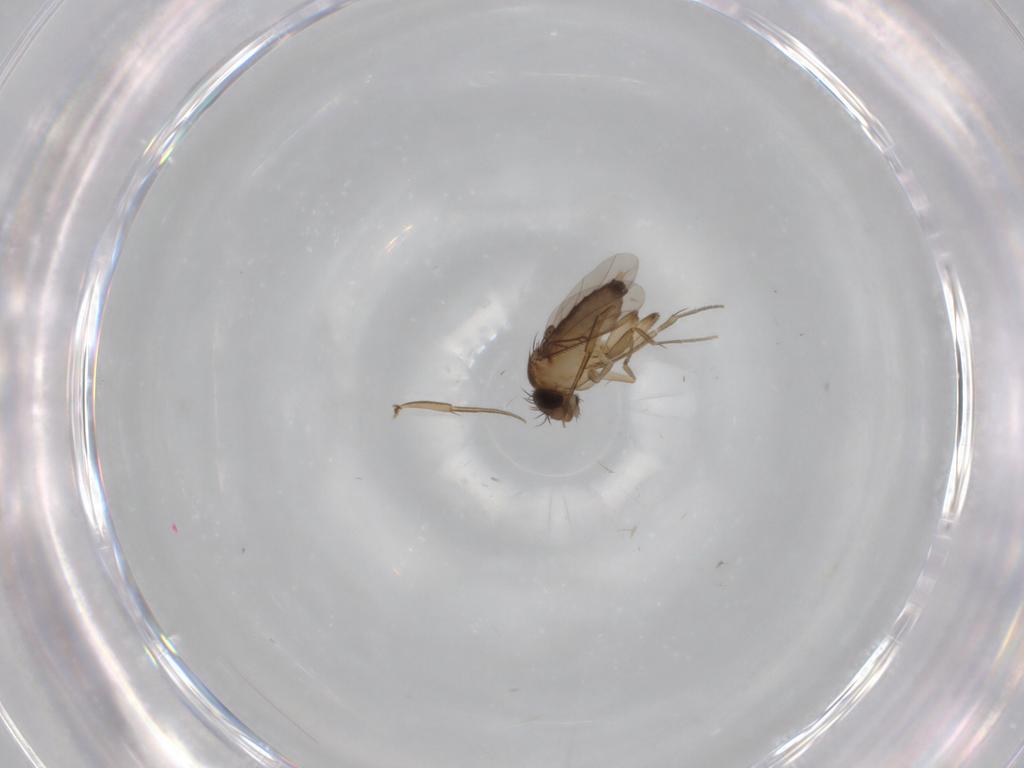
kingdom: Animalia
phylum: Arthropoda
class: Insecta
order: Diptera
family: Phoridae
